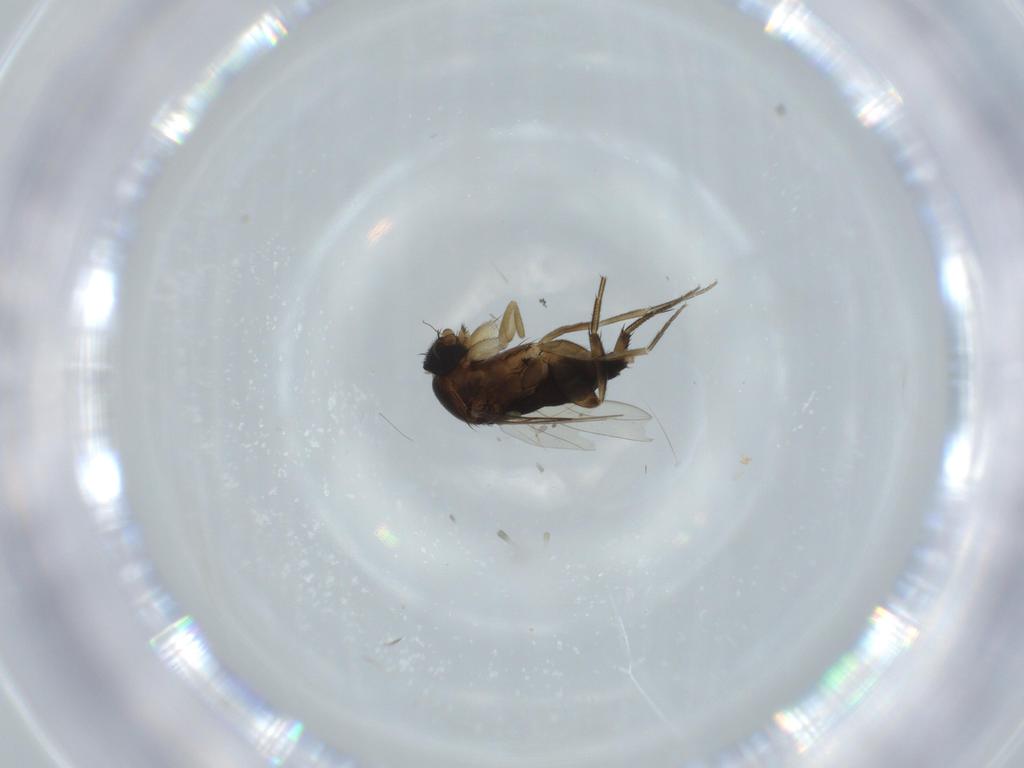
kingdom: Animalia
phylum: Arthropoda
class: Insecta
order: Diptera
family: Phoridae
